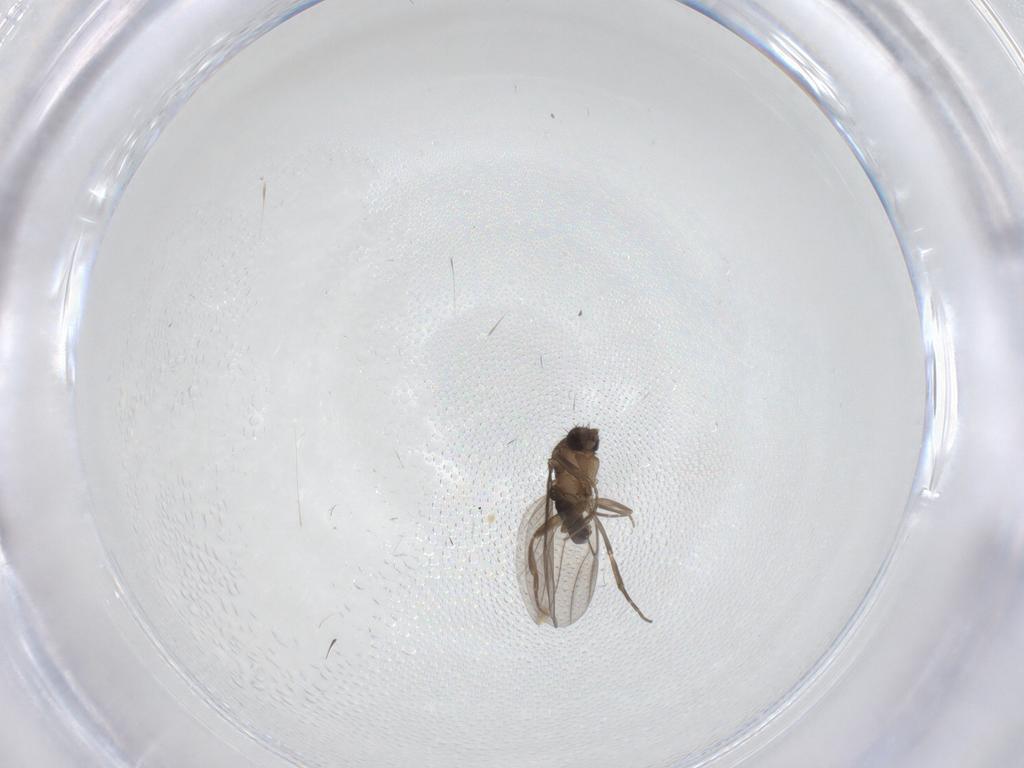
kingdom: Animalia
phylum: Arthropoda
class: Insecta
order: Diptera
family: Phoridae
